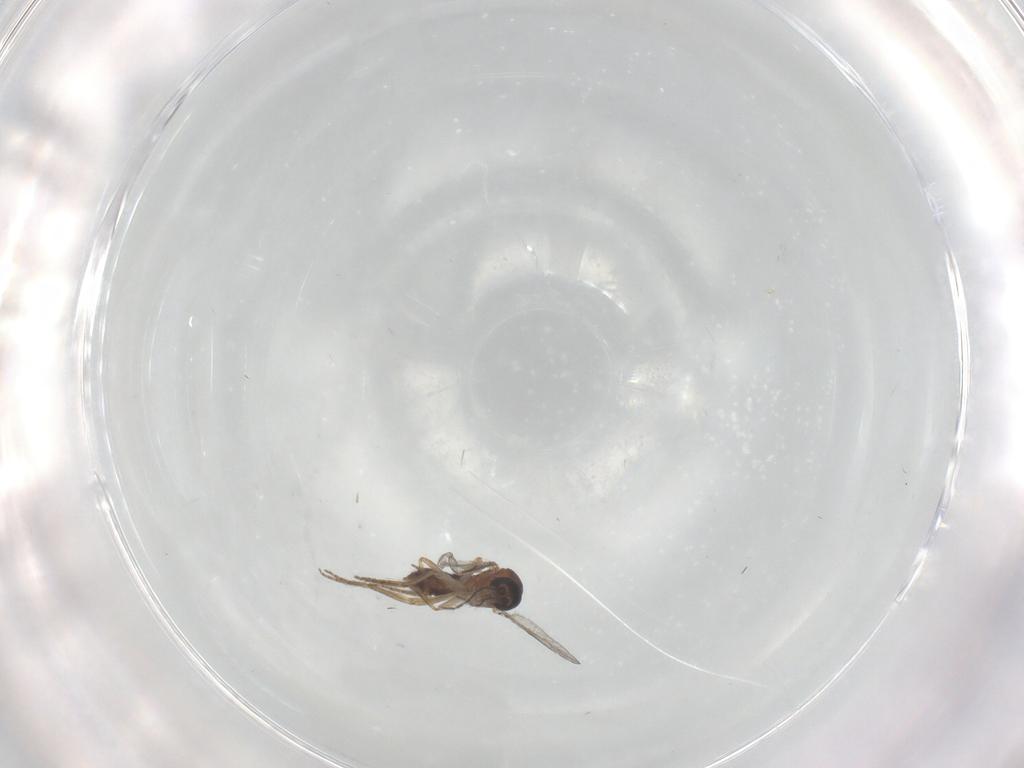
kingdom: Animalia
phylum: Arthropoda
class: Insecta
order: Diptera
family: Ceratopogonidae
